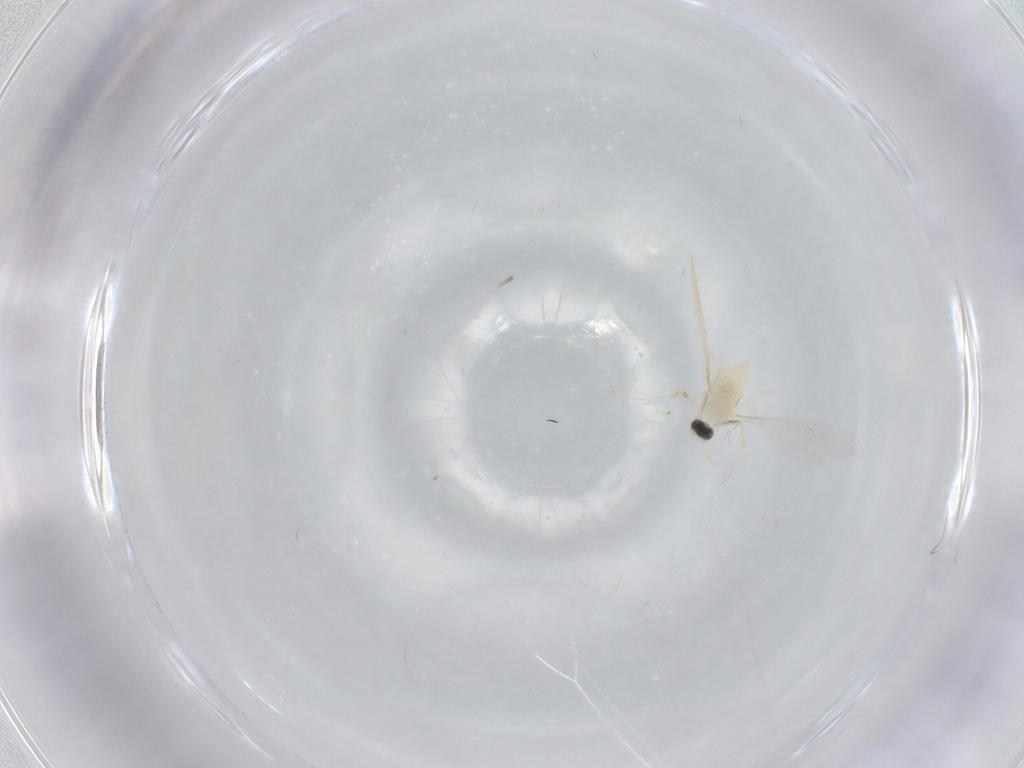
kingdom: Animalia
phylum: Arthropoda
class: Insecta
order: Diptera
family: Cecidomyiidae
